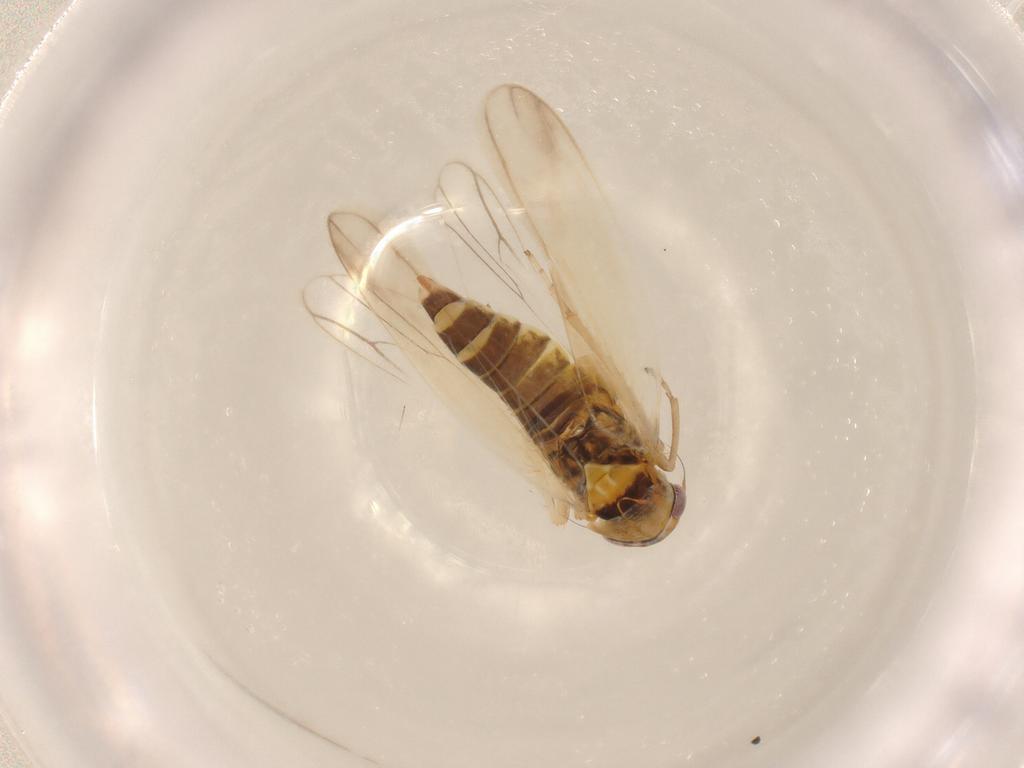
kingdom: Animalia
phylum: Arthropoda
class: Insecta
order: Hemiptera
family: Cicadellidae
